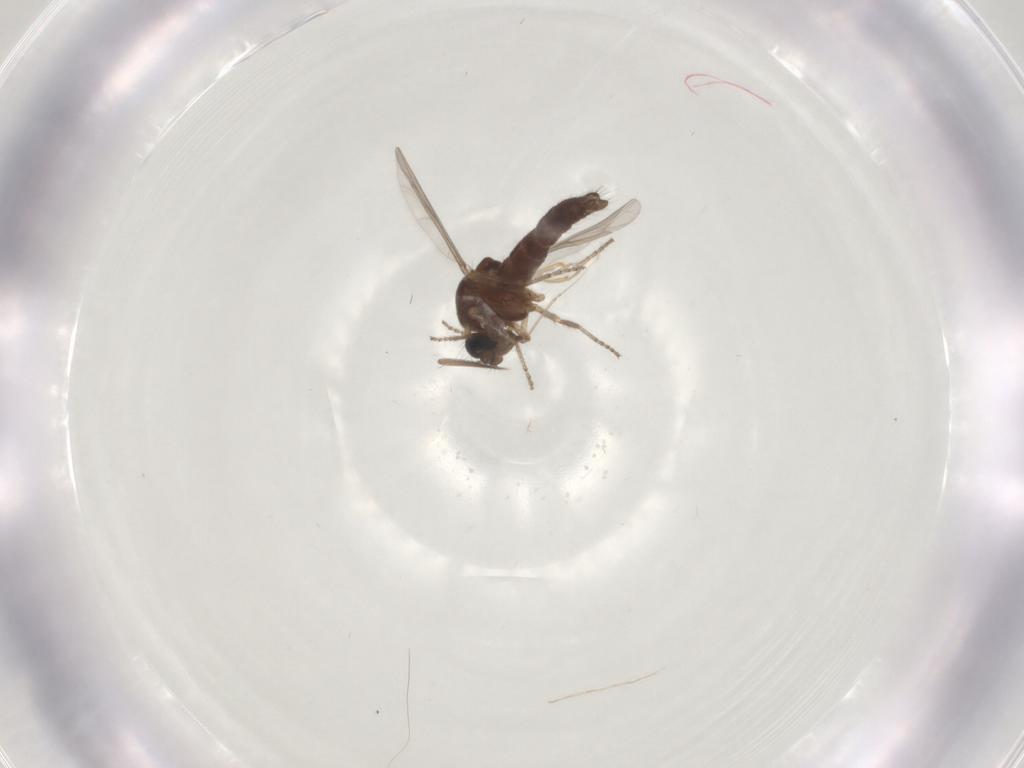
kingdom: Animalia
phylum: Arthropoda
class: Insecta
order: Diptera
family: Ceratopogonidae
